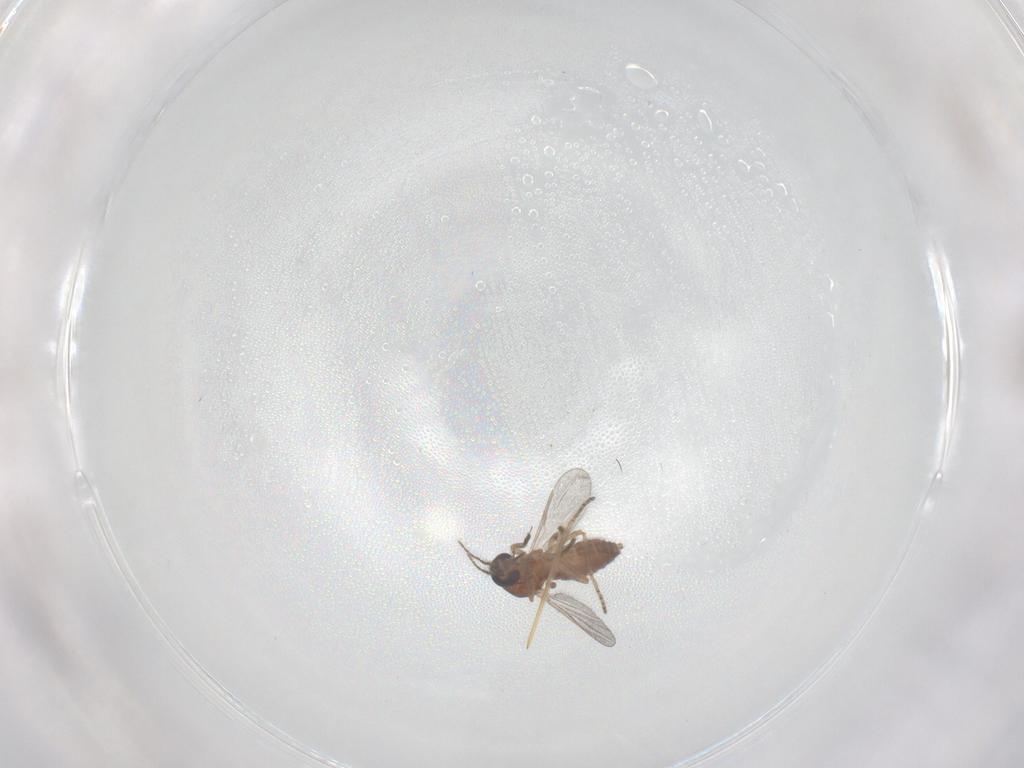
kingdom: Animalia
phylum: Arthropoda
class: Insecta
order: Diptera
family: Ceratopogonidae
